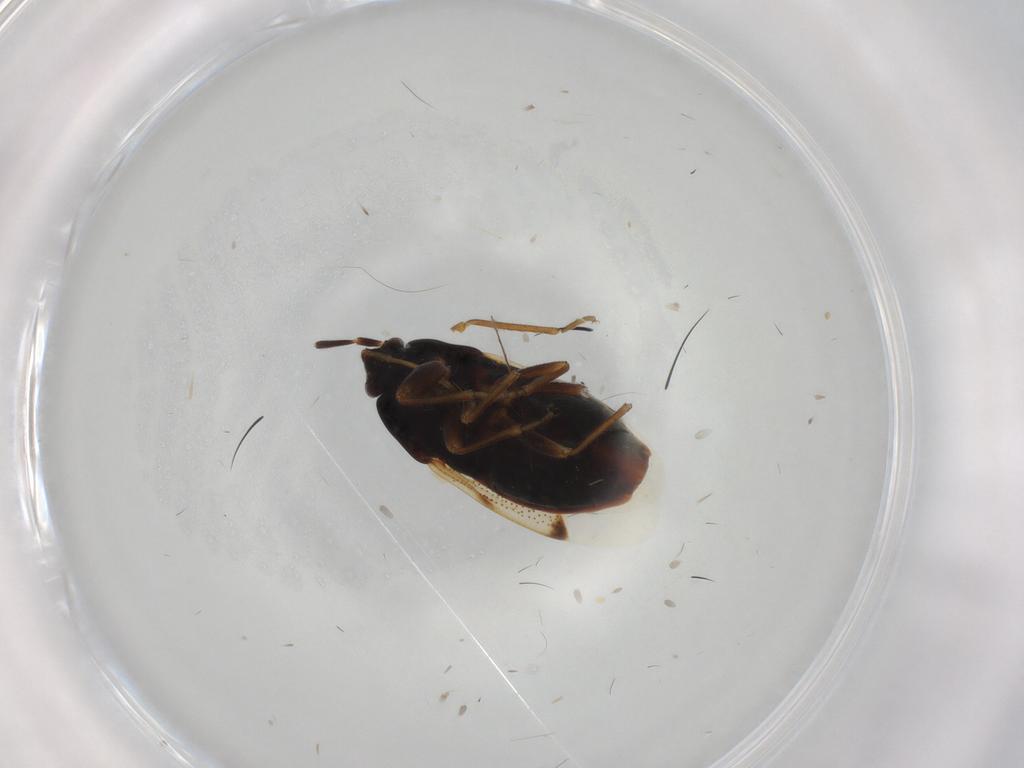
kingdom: Animalia
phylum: Arthropoda
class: Insecta
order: Hemiptera
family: Rhyparochromidae
